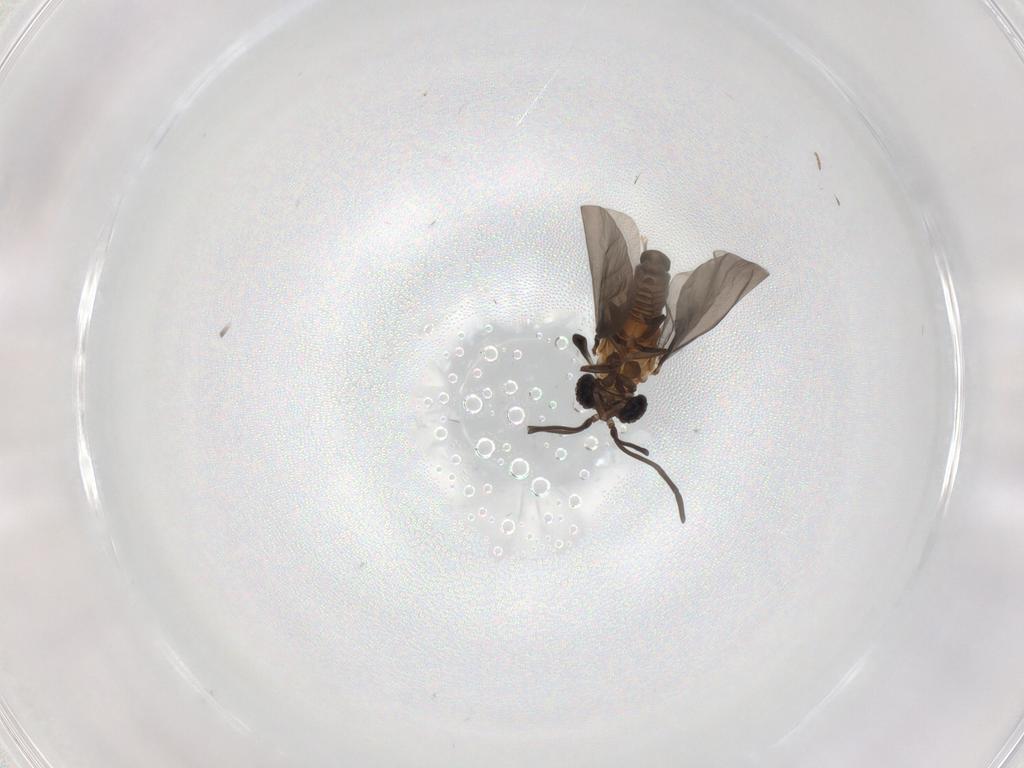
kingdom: Animalia
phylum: Arthropoda
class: Insecta
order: Strepsiptera
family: Myrmecolacidae
